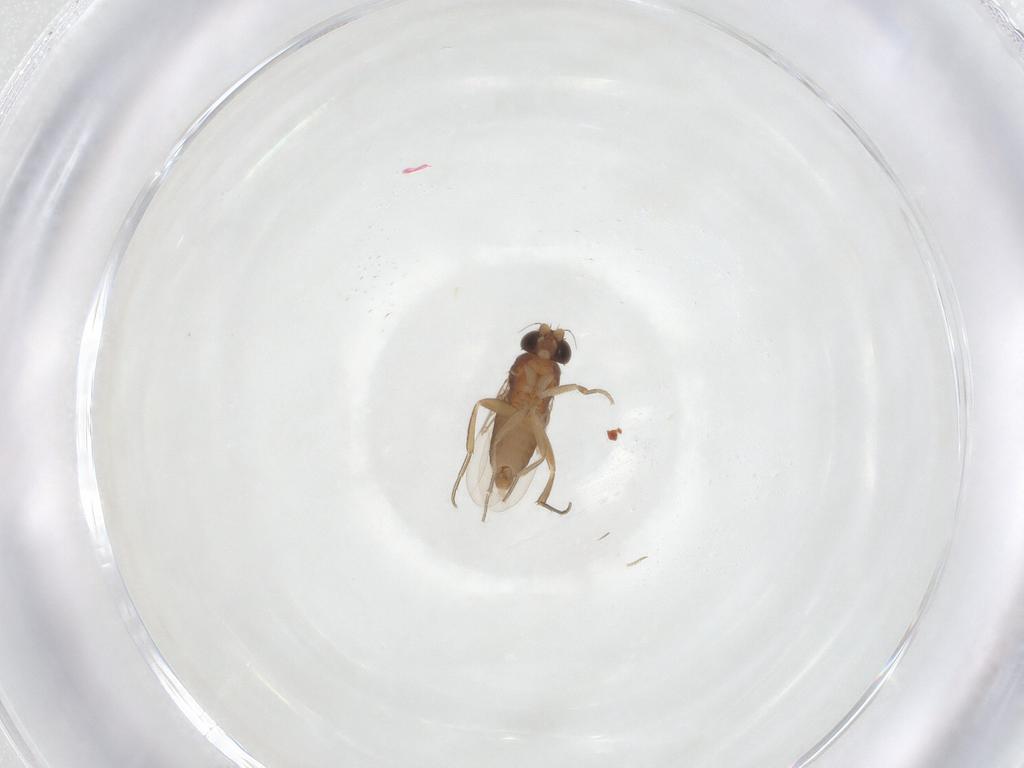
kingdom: Animalia
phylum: Arthropoda
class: Insecta
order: Diptera
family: Phoridae
